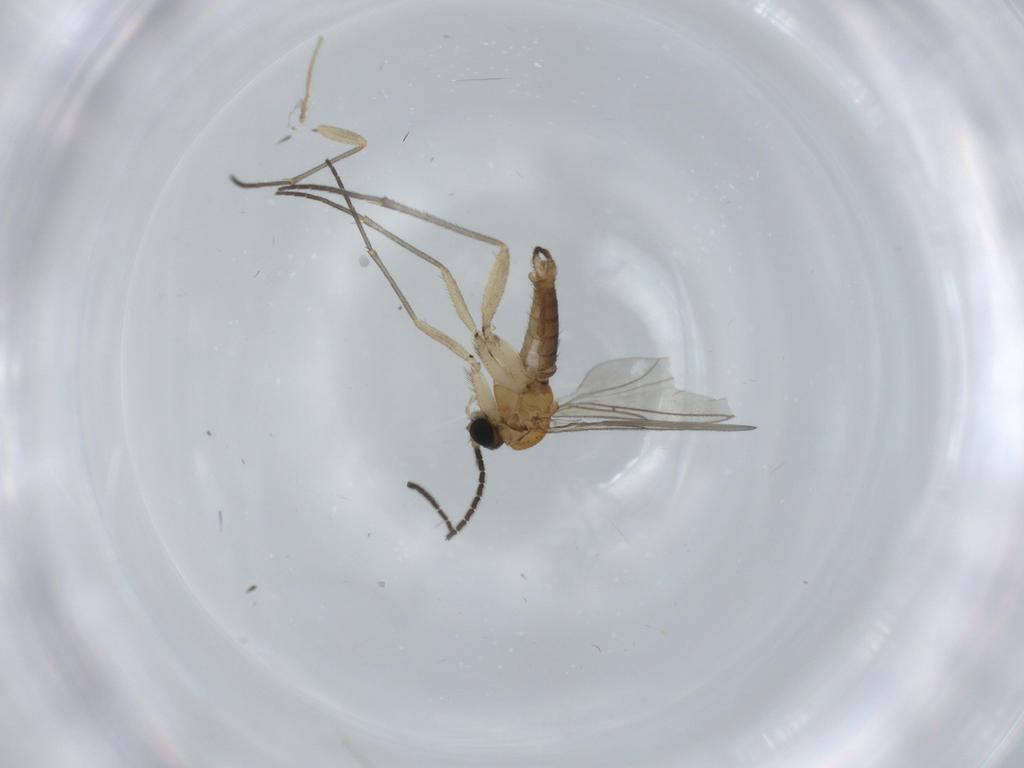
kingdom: Animalia
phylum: Arthropoda
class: Insecta
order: Diptera
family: Sciaridae
